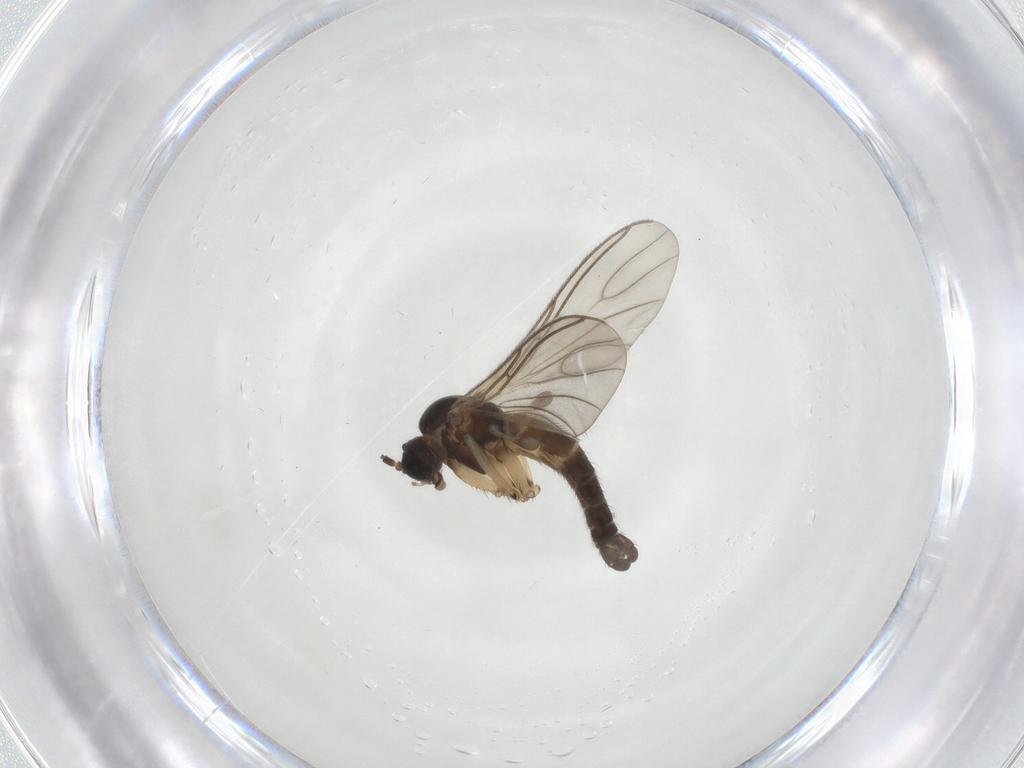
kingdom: Animalia
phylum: Arthropoda
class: Insecta
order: Diptera
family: Sciaridae
